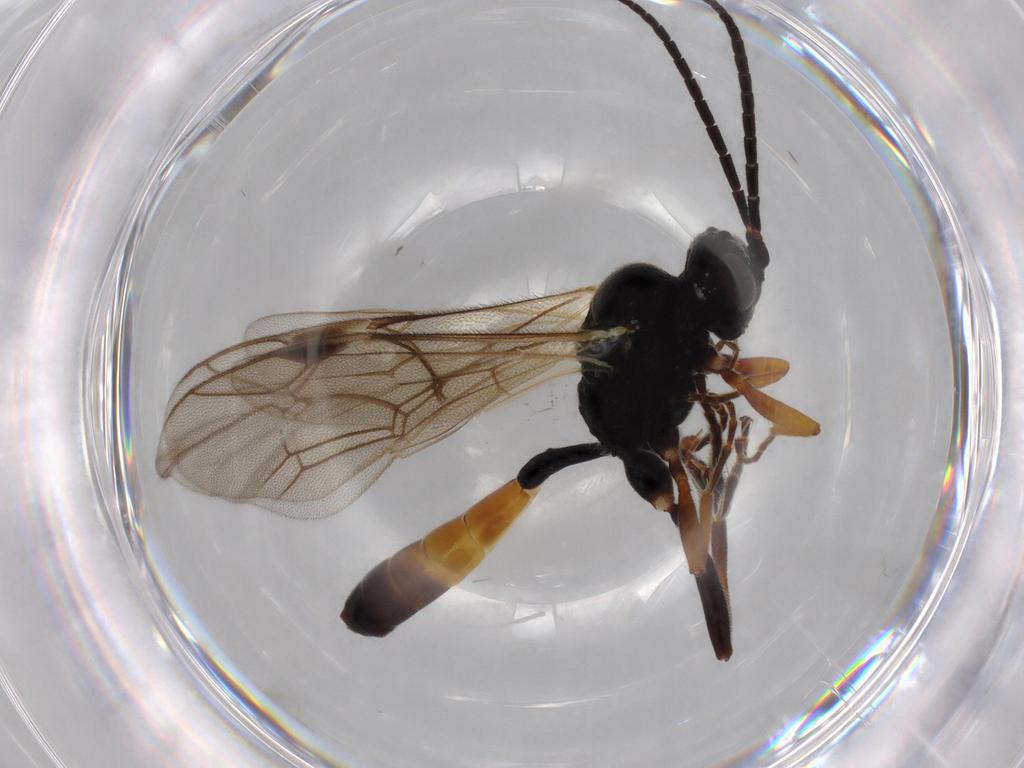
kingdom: Animalia
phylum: Arthropoda
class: Insecta
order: Hymenoptera
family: Ichneumonidae
